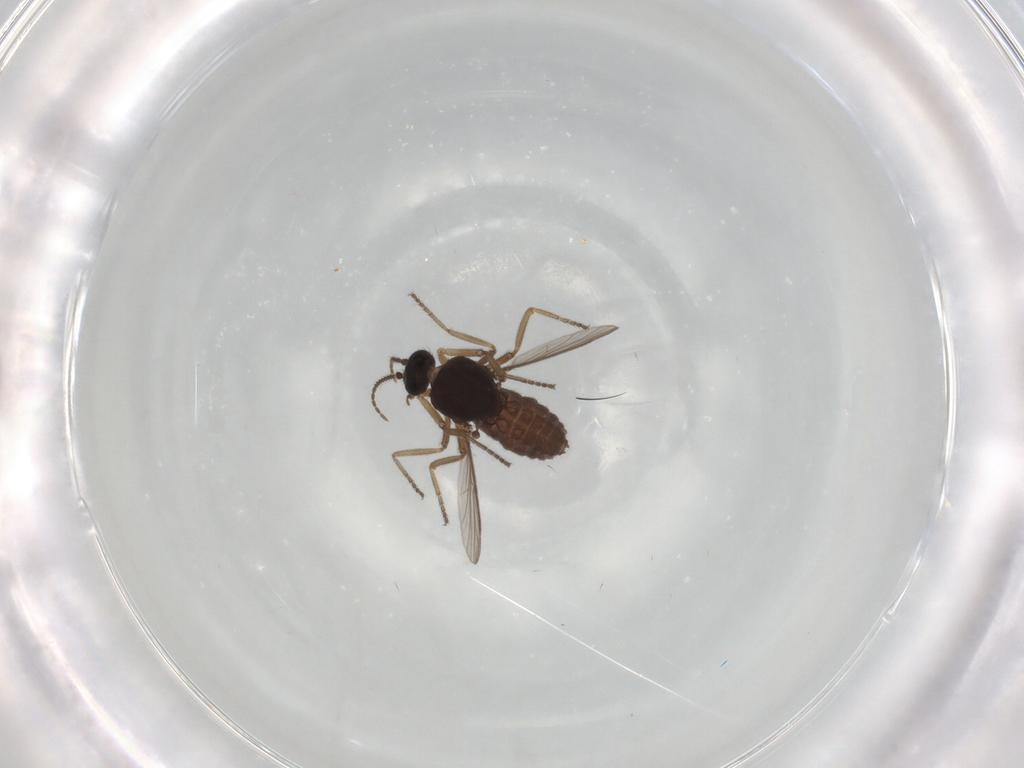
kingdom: Animalia
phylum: Arthropoda
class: Insecta
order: Diptera
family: Ceratopogonidae
